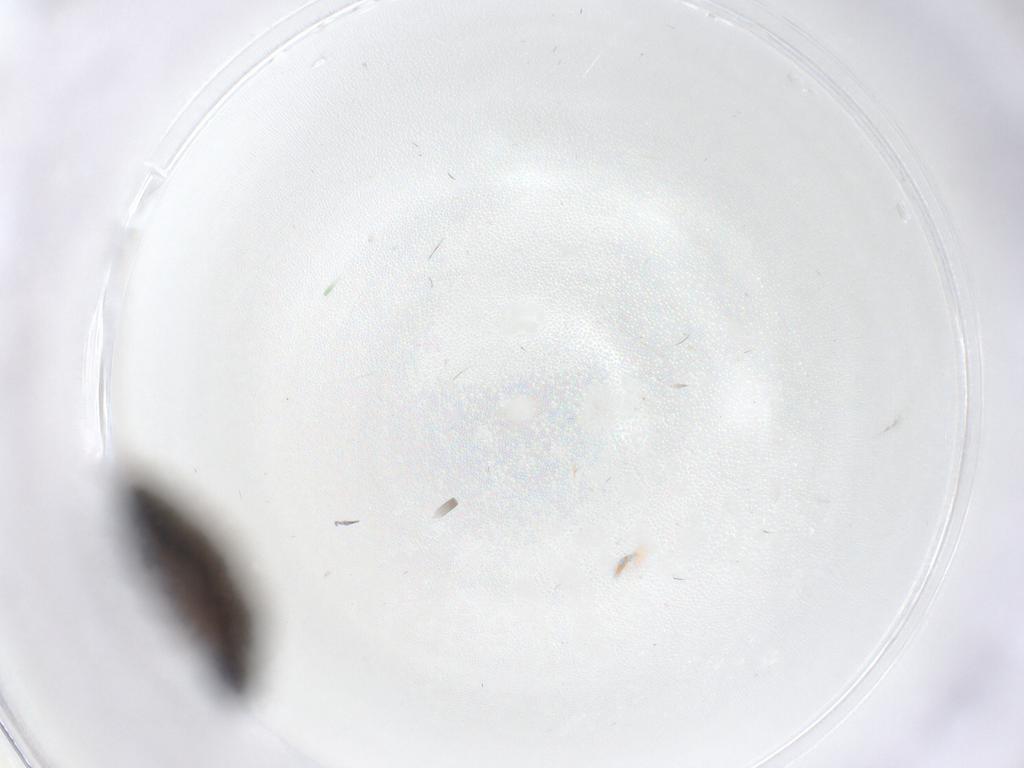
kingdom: Animalia
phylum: Arthropoda
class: Insecta
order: Diptera
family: Sphaeroceridae
